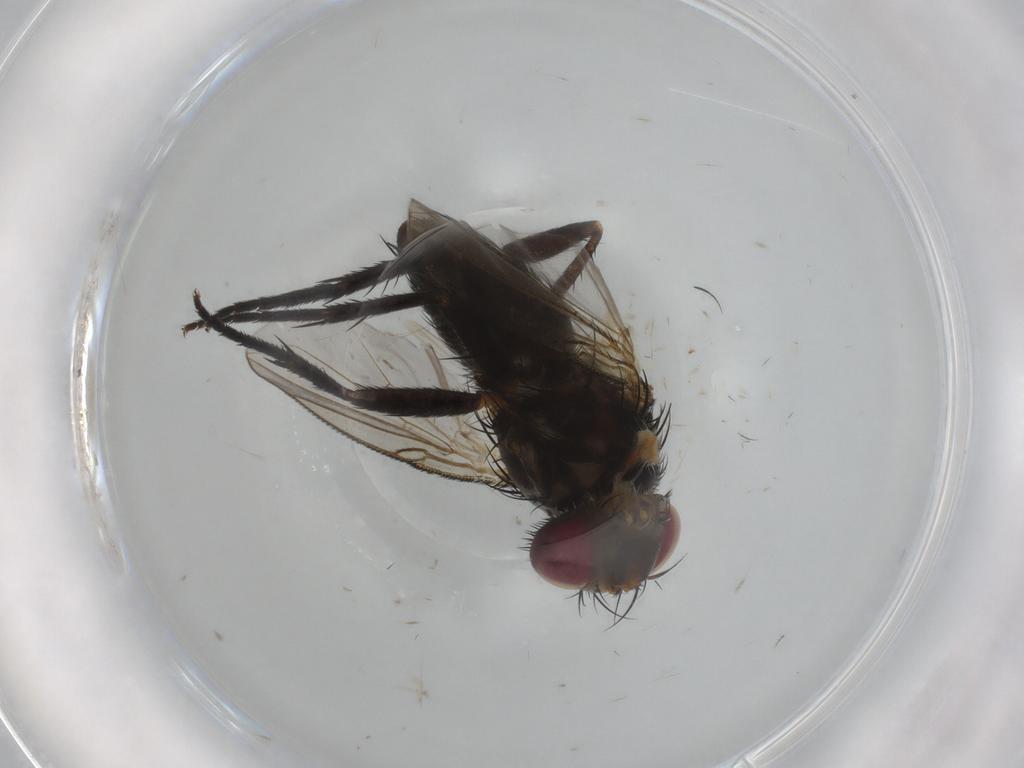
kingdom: Animalia
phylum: Arthropoda
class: Insecta
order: Diptera
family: Tachinidae
